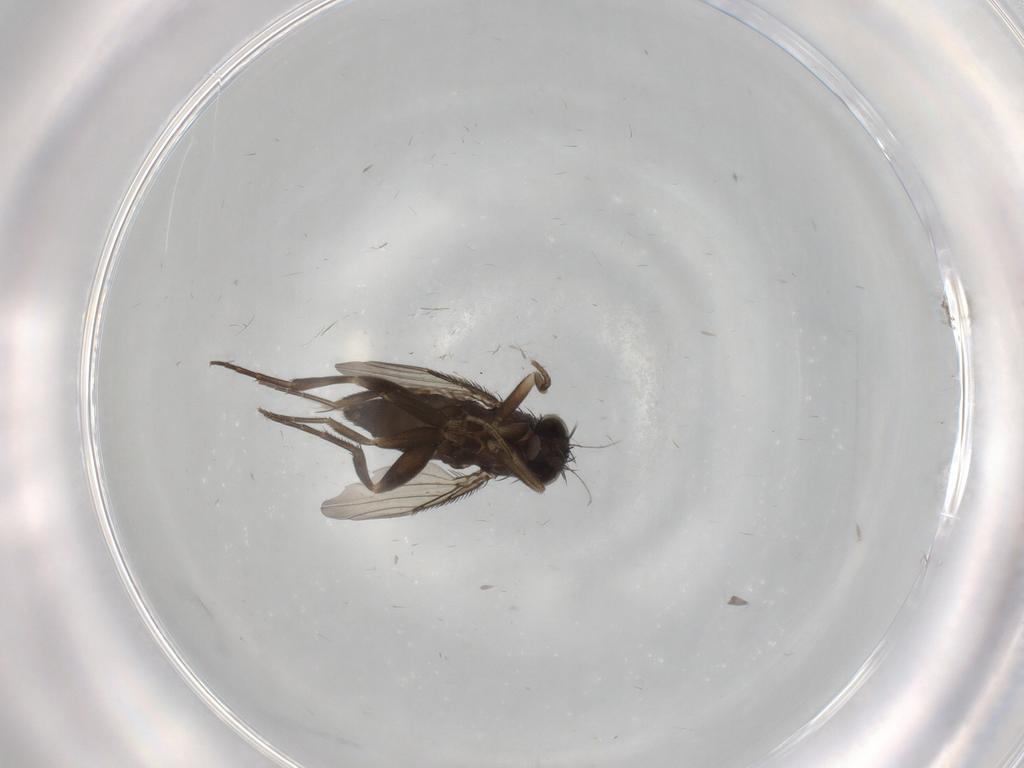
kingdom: Animalia
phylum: Arthropoda
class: Insecta
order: Diptera
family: Phoridae
